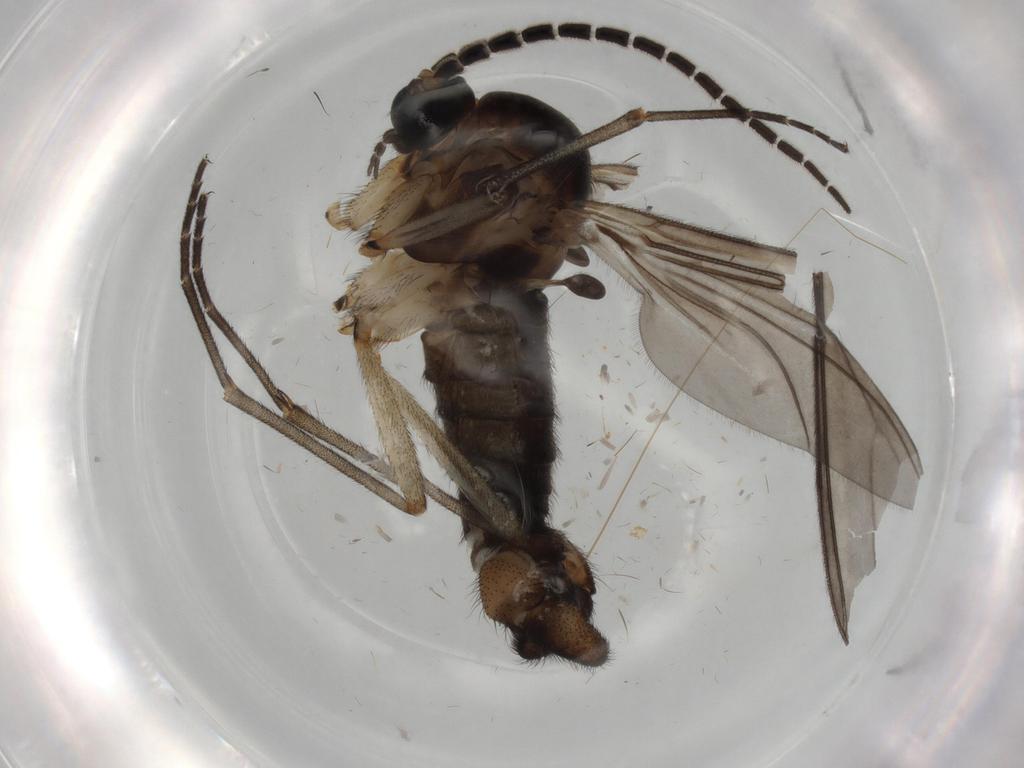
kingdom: Animalia
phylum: Arthropoda
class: Insecta
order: Diptera
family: Sciaridae
